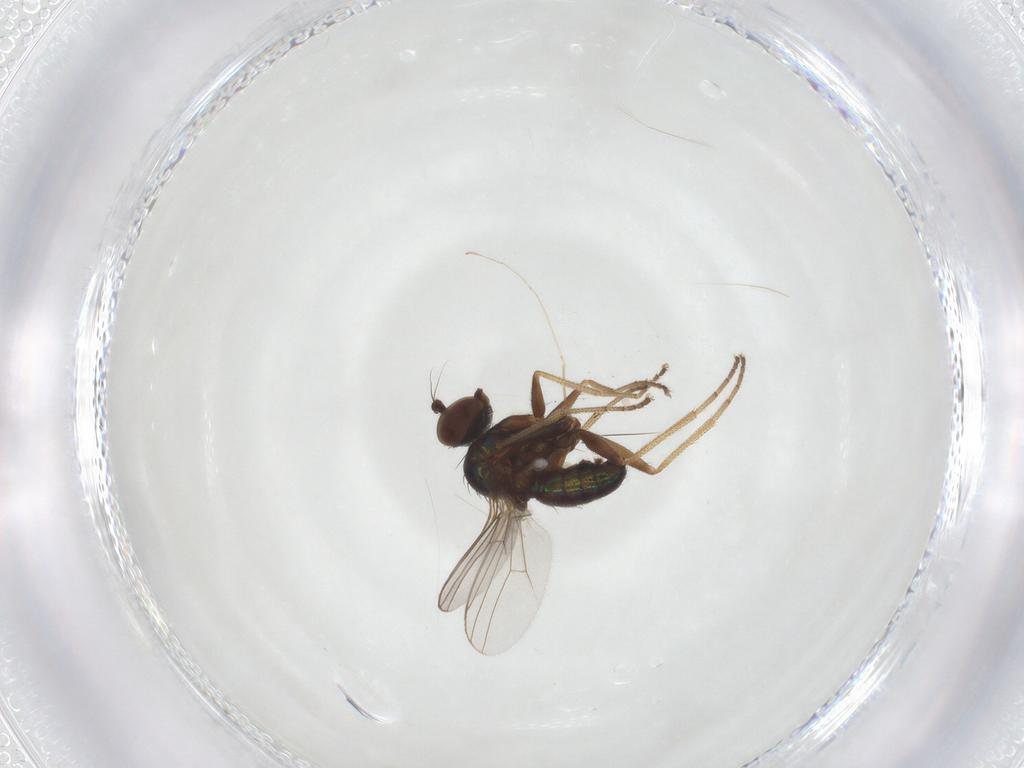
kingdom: Animalia
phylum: Arthropoda
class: Insecta
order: Diptera
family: Dolichopodidae
